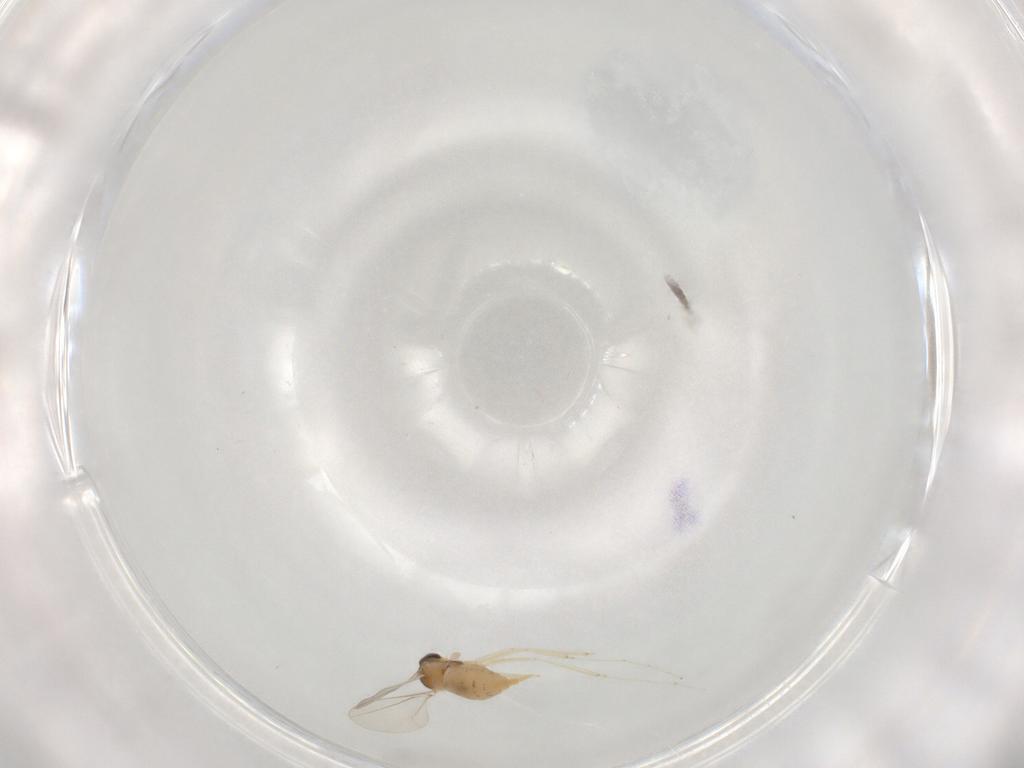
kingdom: Animalia
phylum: Arthropoda
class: Insecta
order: Diptera
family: Cecidomyiidae
